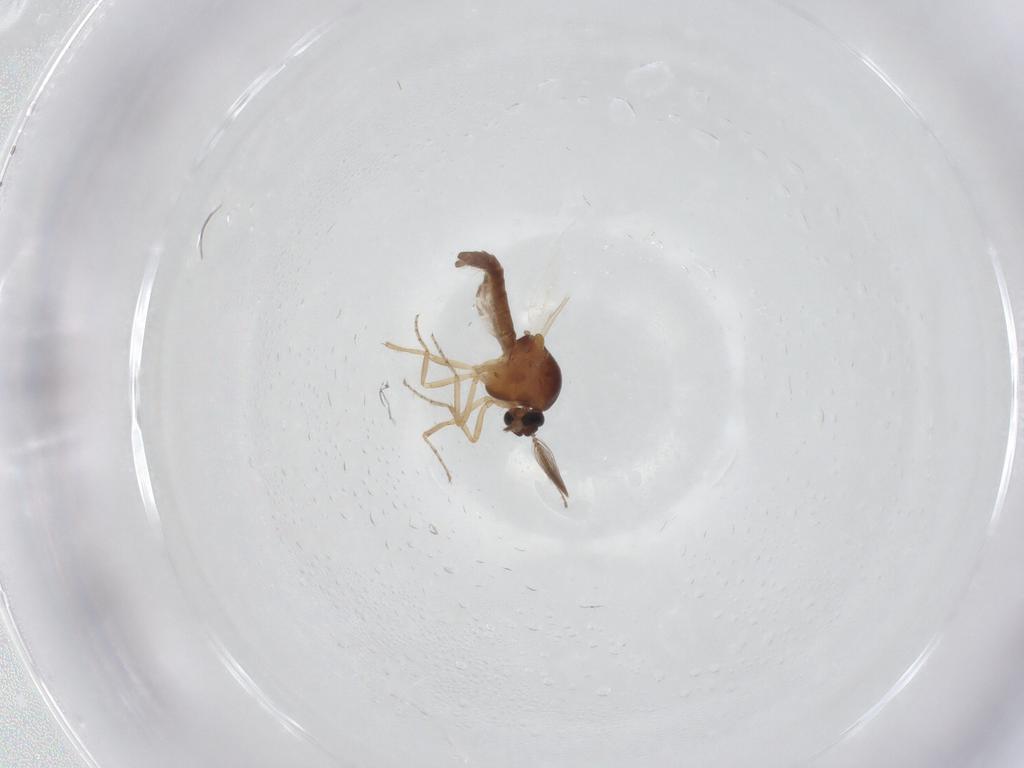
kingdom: Animalia
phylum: Arthropoda
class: Insecta
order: Diptera
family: Ceratopogonidae
